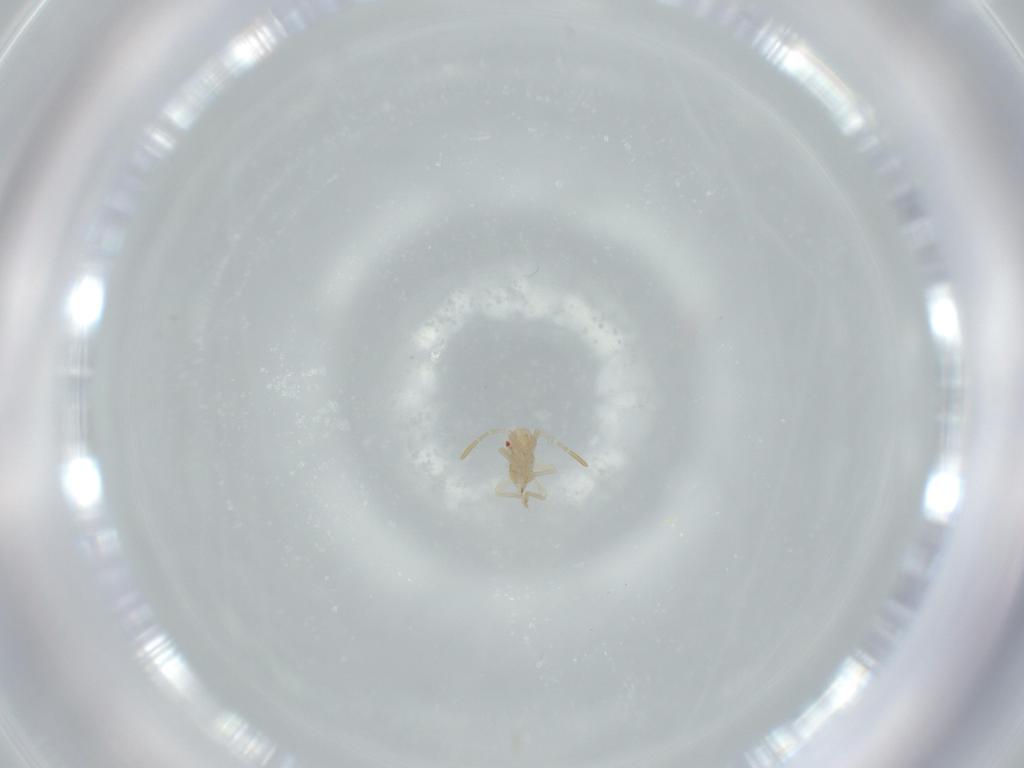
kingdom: Animalia
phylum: Arthropoda
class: Insecta
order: Hemiptera
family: Miridae
